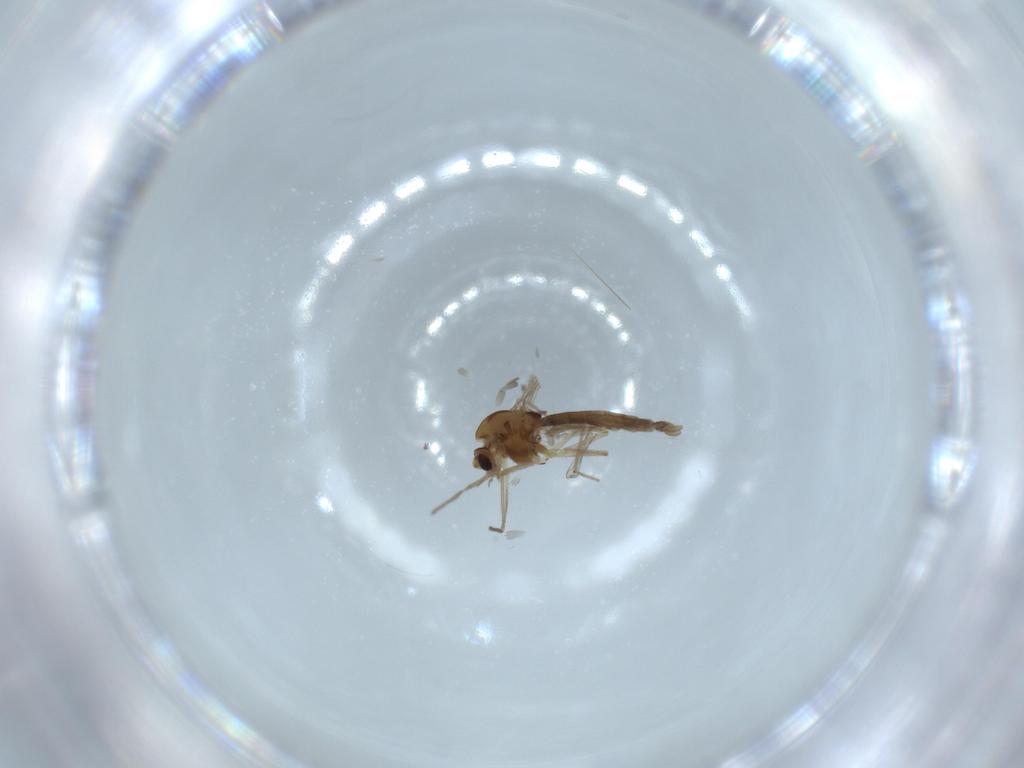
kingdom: Animalia
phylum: Arthropoda
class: Insecta
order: Diptera
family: Chironomidae
